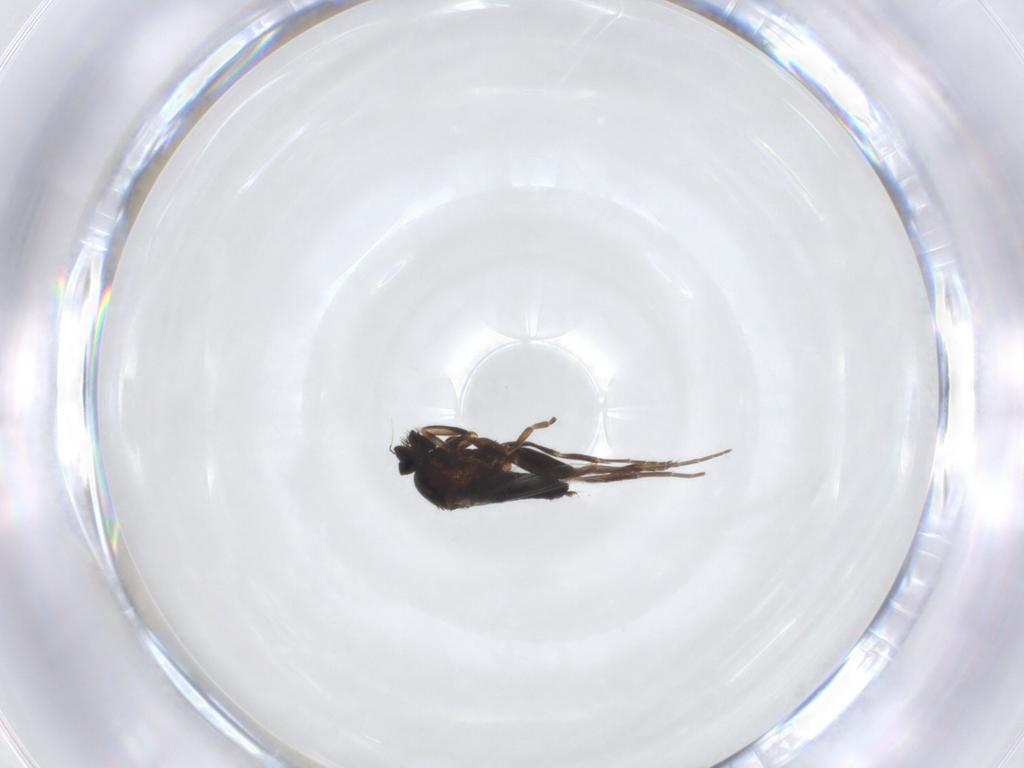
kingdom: Animalia
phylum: Arthropoda
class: Insecta
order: Diptera
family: Phoridae
